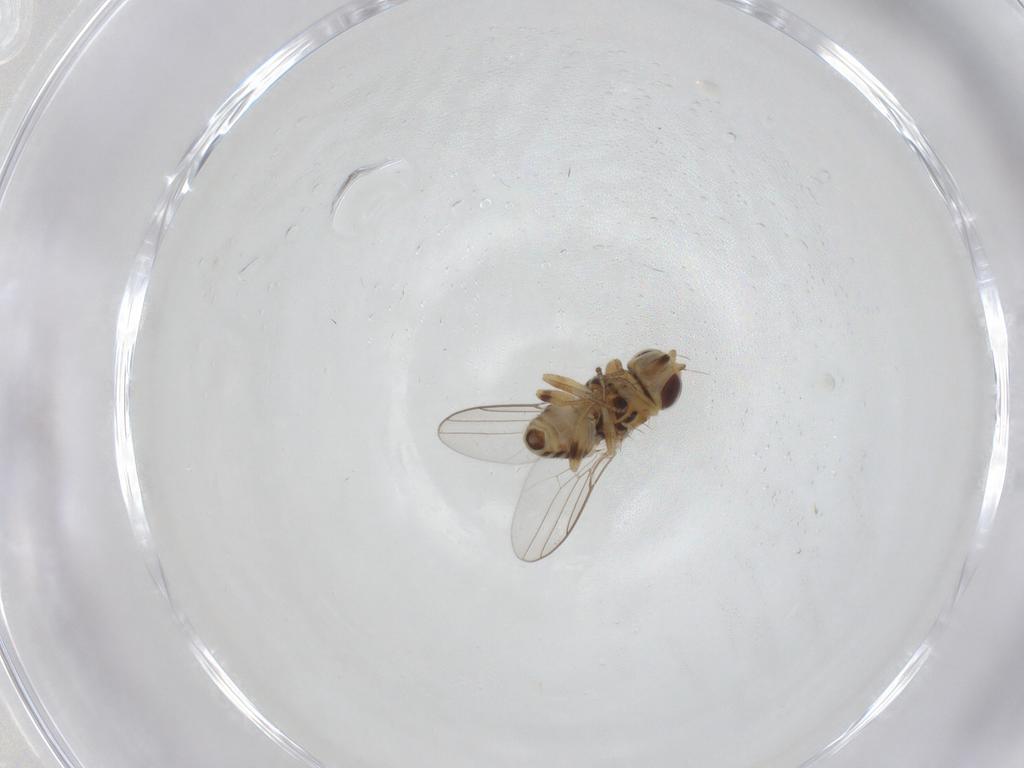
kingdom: Animalia
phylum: Arthropoda
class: Insecta
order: Diptera
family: Chloropidae
